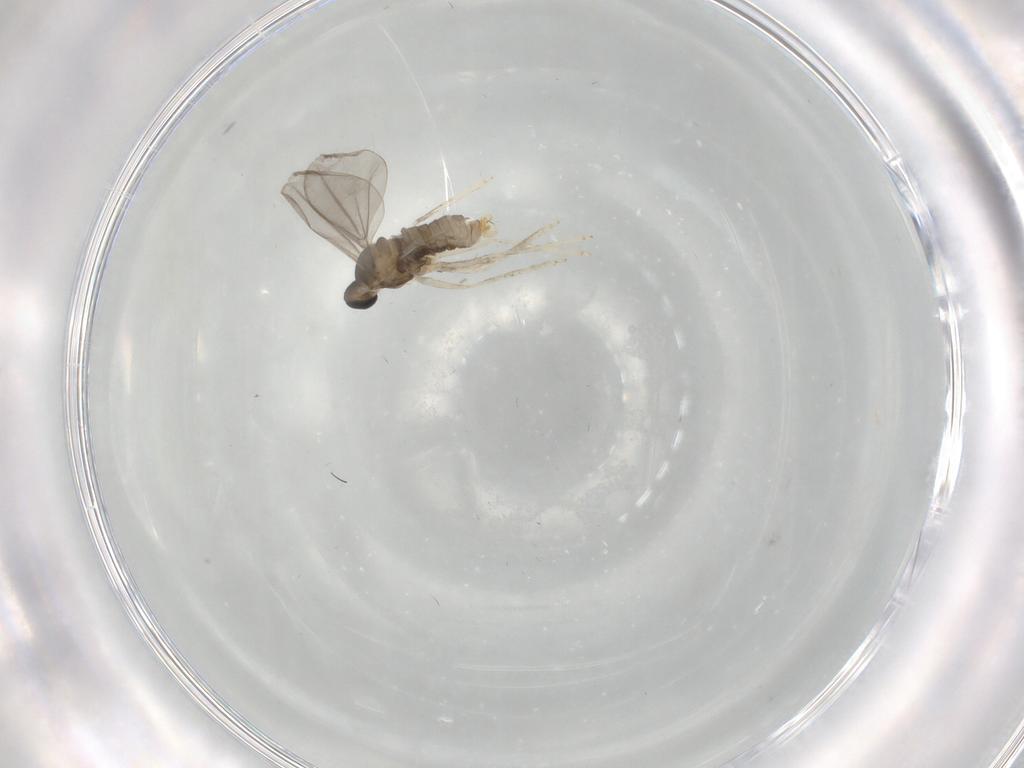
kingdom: Animalia
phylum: Arthropoda
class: Insecta
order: Diptera
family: Cecidomyiidae
